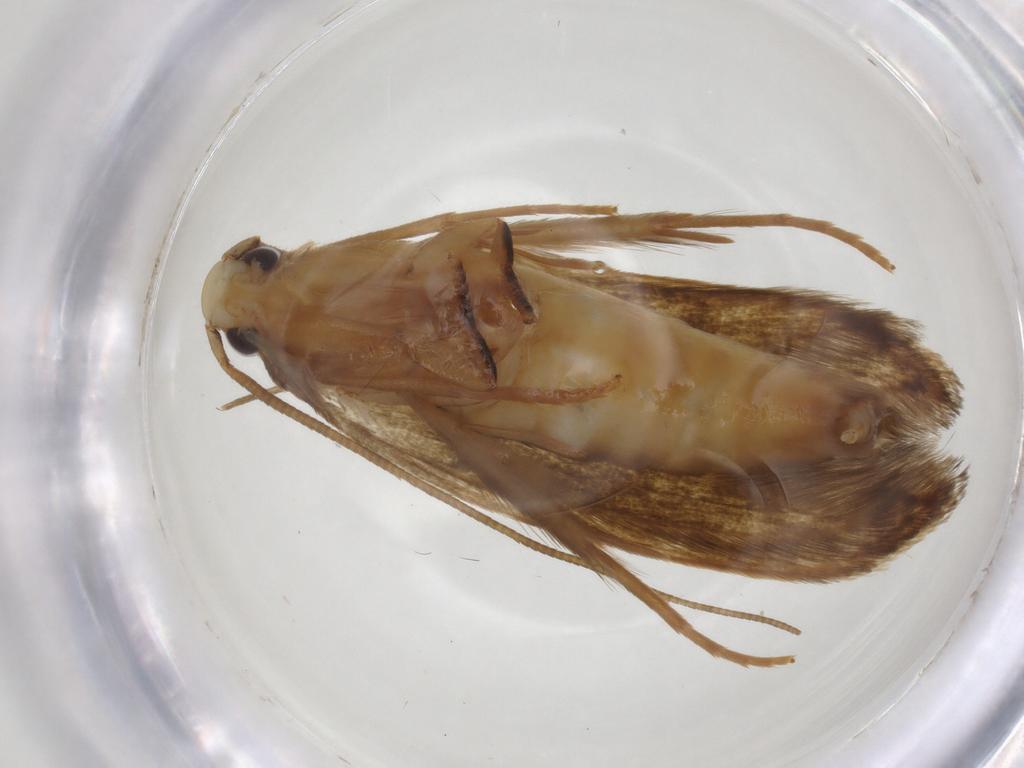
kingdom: Animalia
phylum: Arthropoda
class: Insecta
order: Lepidoptera
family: Tineidae
